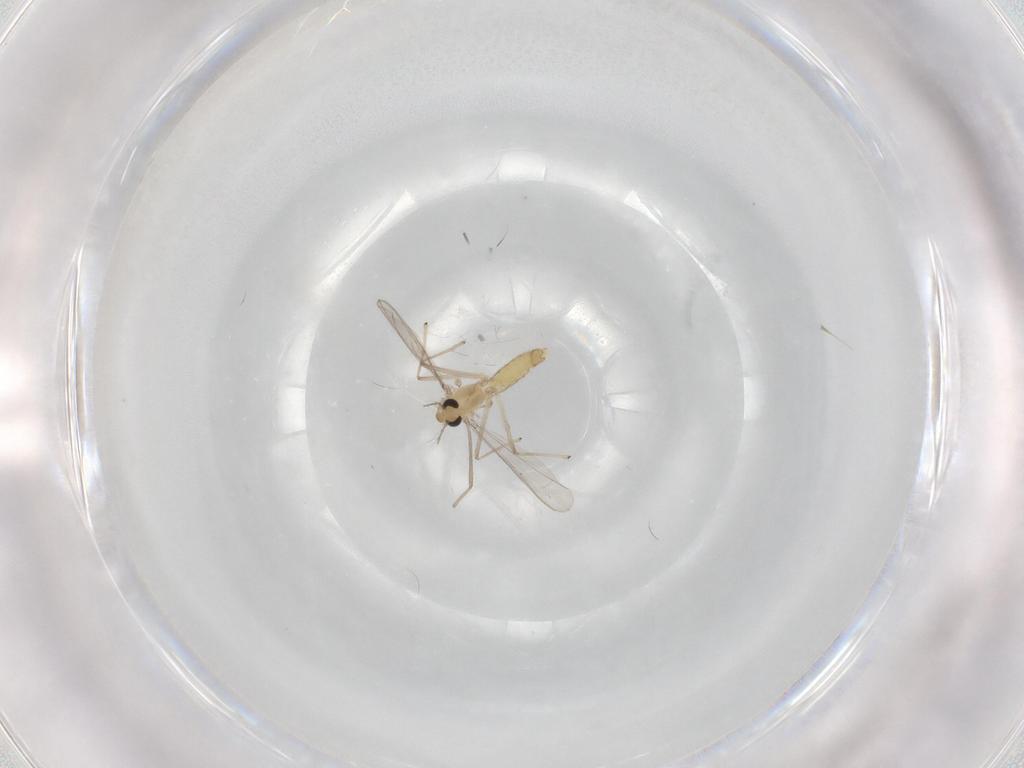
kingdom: Animalia
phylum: Arthropoda
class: Insecta
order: Diptera
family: Chironomidae
